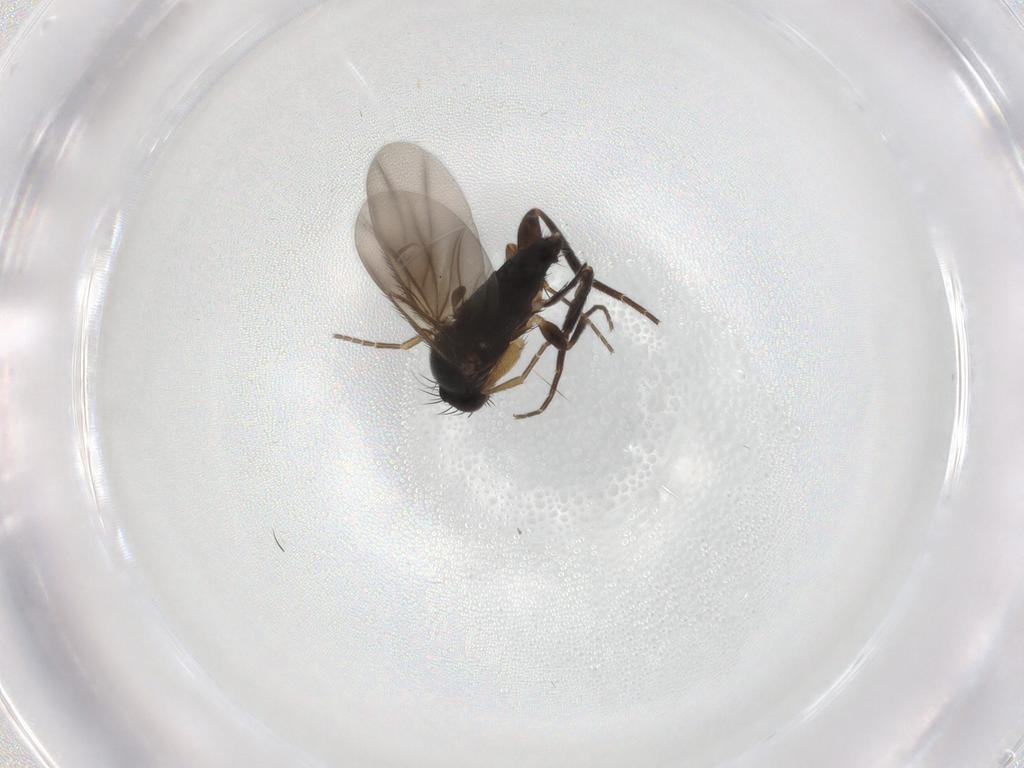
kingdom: Animalia
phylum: Arthropoda
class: Insecta
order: Diptera
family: Phoridae
